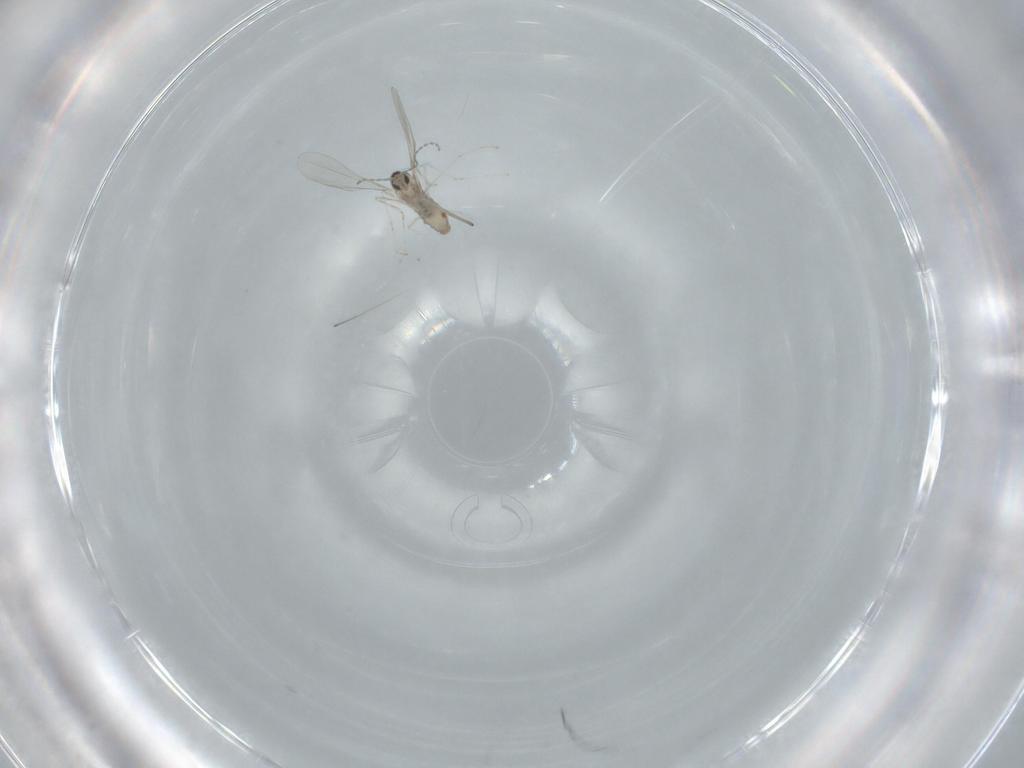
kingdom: Animalia
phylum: Arthropoda
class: Insecta
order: Diptera
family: Cecidomyiidae
